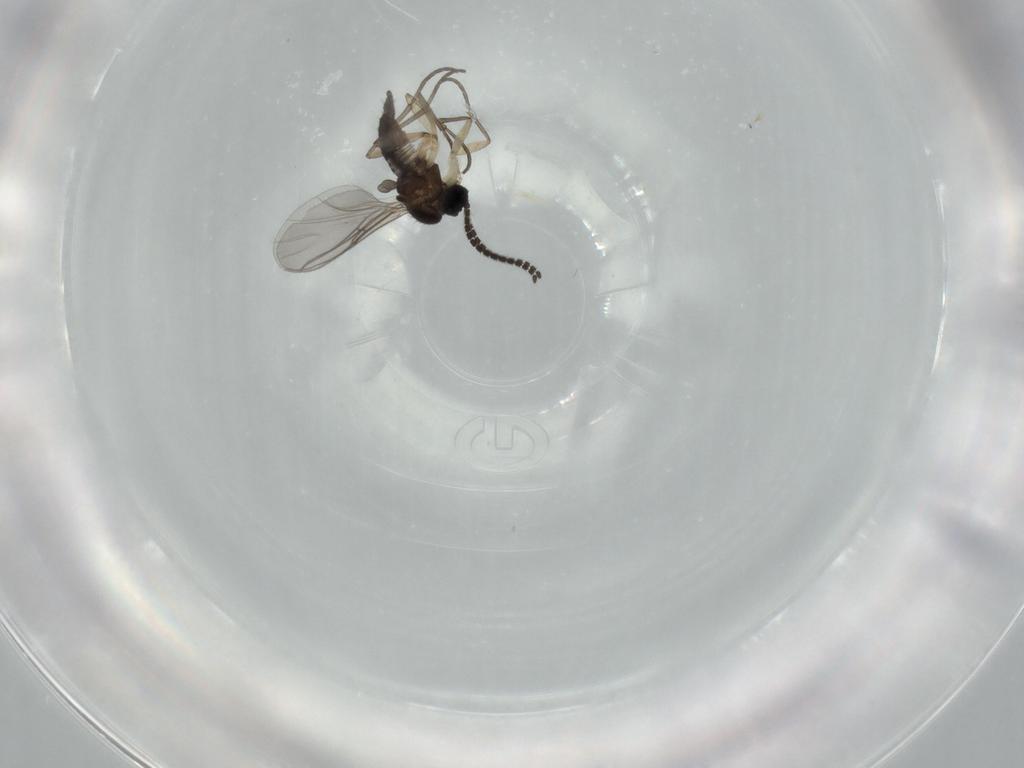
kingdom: Animalia
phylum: Arthropoda
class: Insecta
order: Diptera
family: Sciaridae
